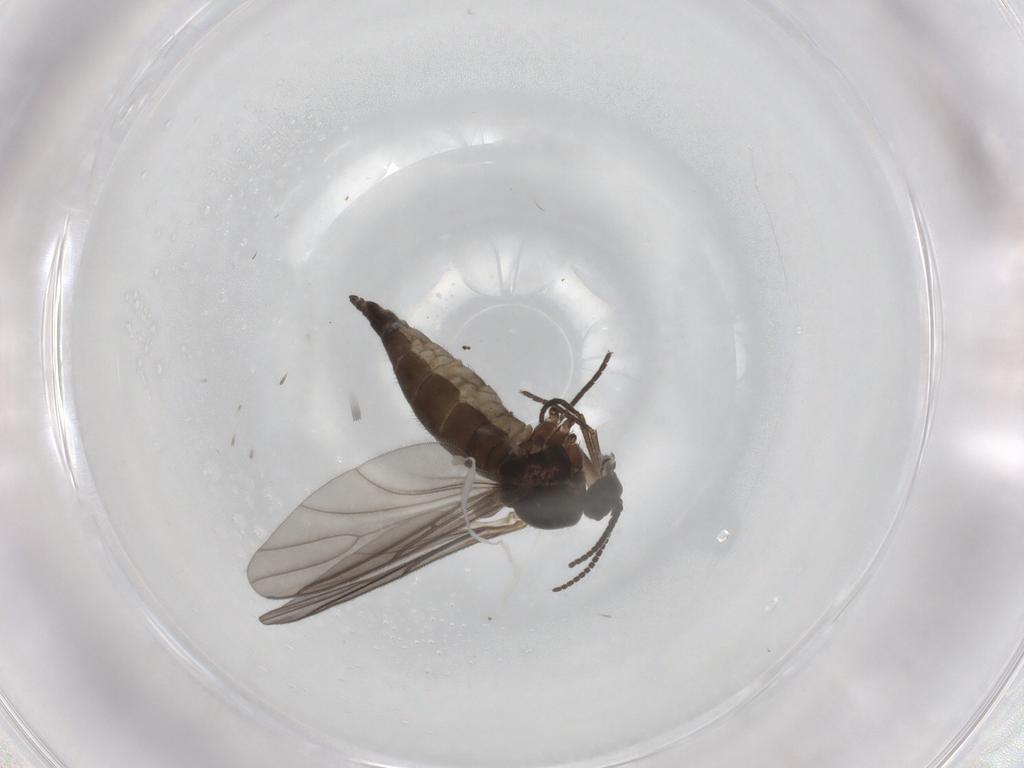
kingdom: Animalia
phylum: Arthropoda
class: Insecta
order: Diptera
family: Sciaridae
